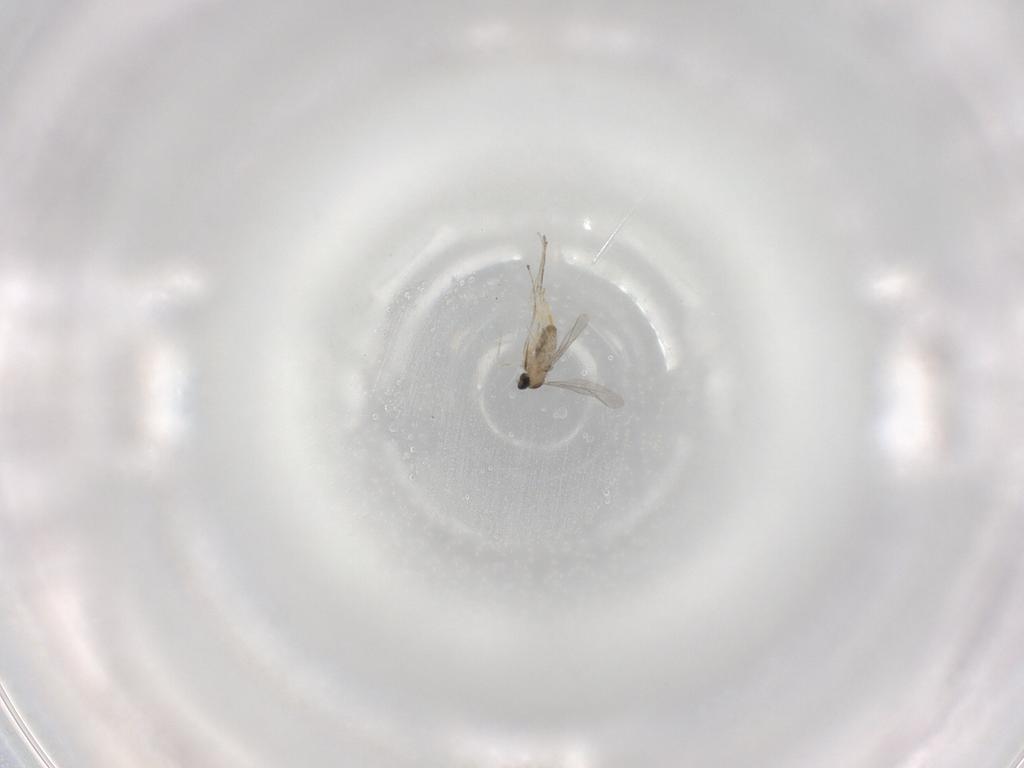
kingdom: Animalia
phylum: Arthropoda
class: Insecta
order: Diptera
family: Cecidomyiidae
